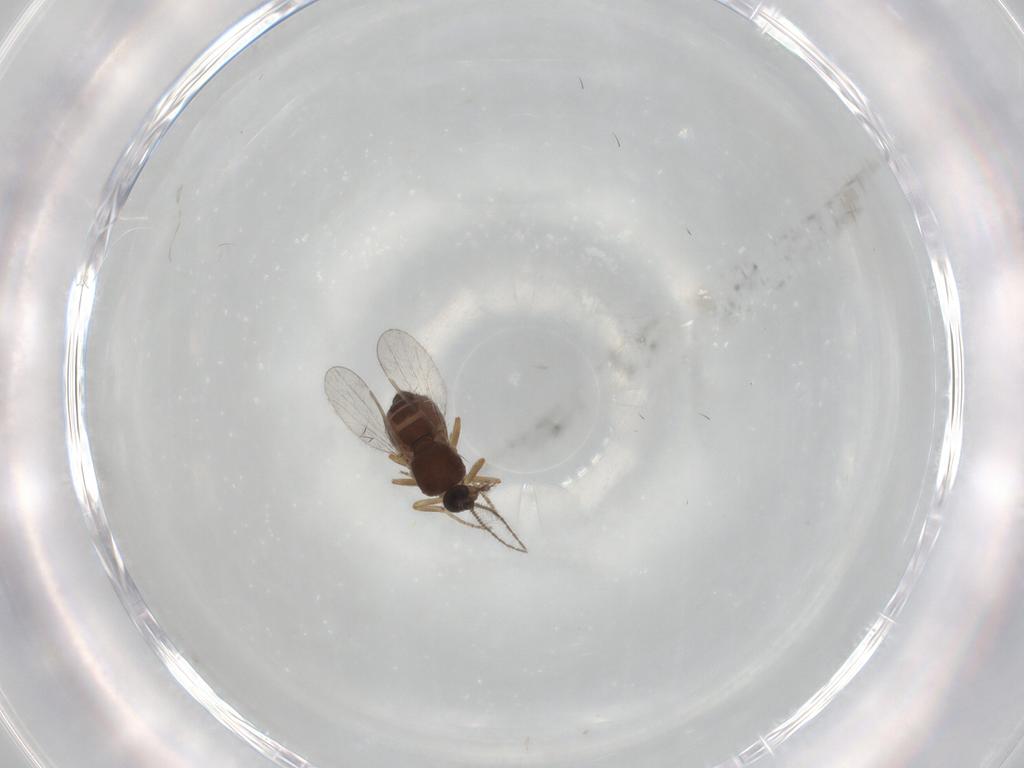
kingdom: Animalia
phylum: Arthropoda
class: Insecta
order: Diptera
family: Ceratopogonidae
